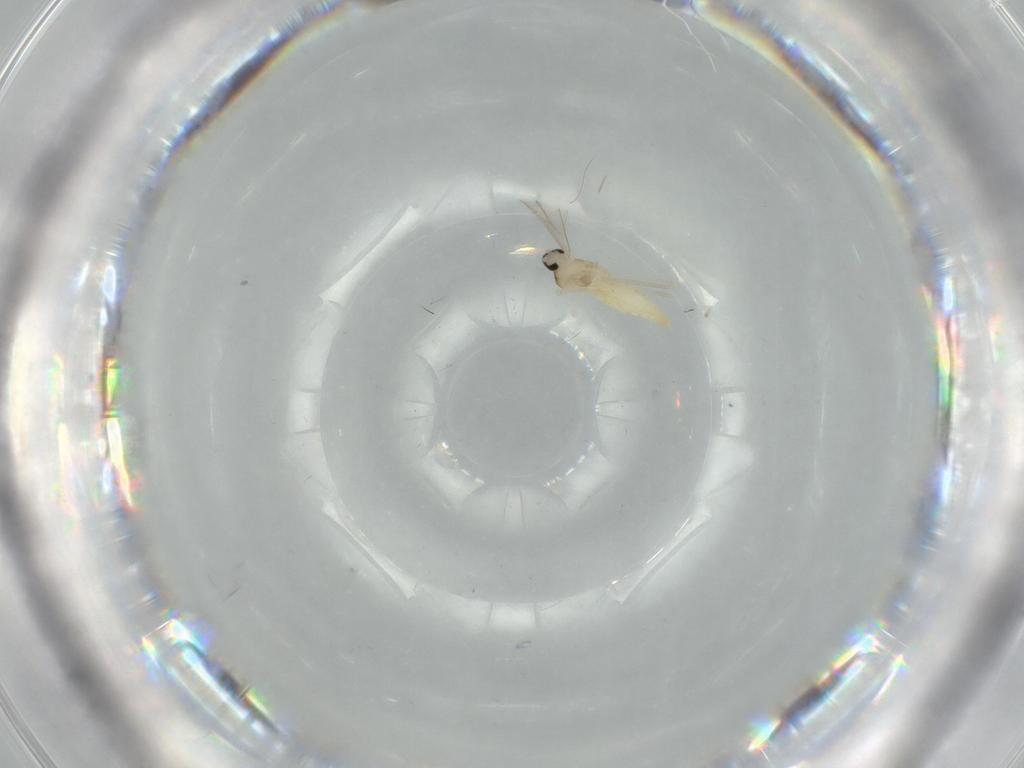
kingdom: Animalia
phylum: Arthropoda
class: Insecta
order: Diptera
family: Cecidomyiidae
